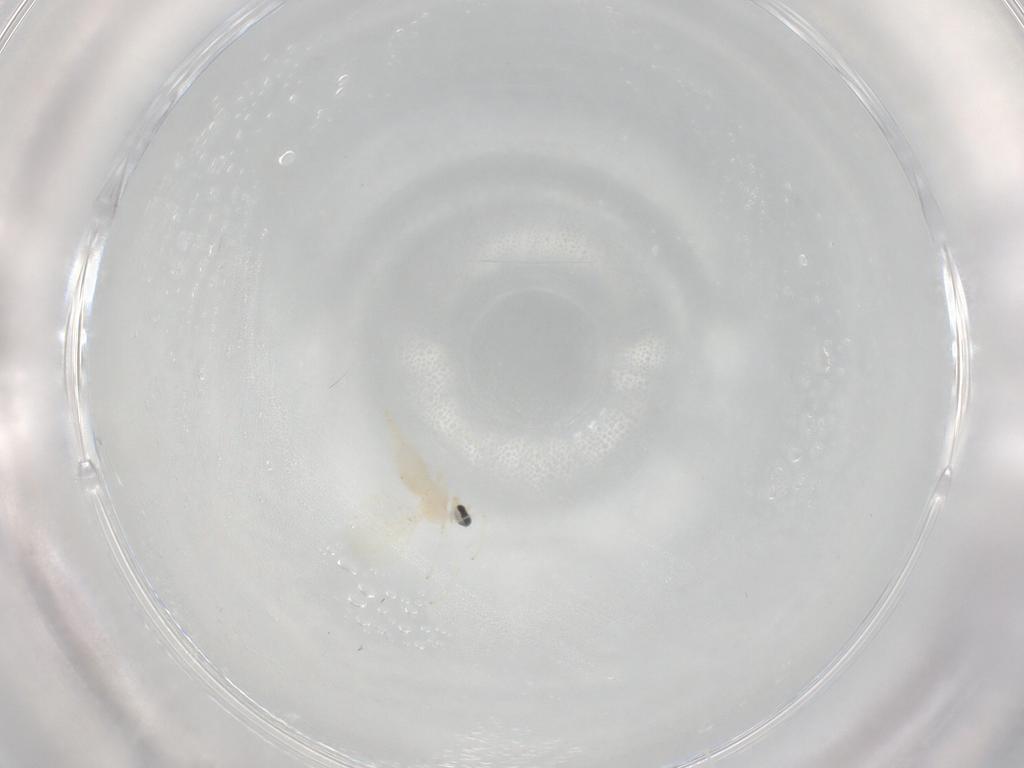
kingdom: Animalia
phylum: Arthropoda
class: Insecta
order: Diptera
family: Cecidomyiidae
